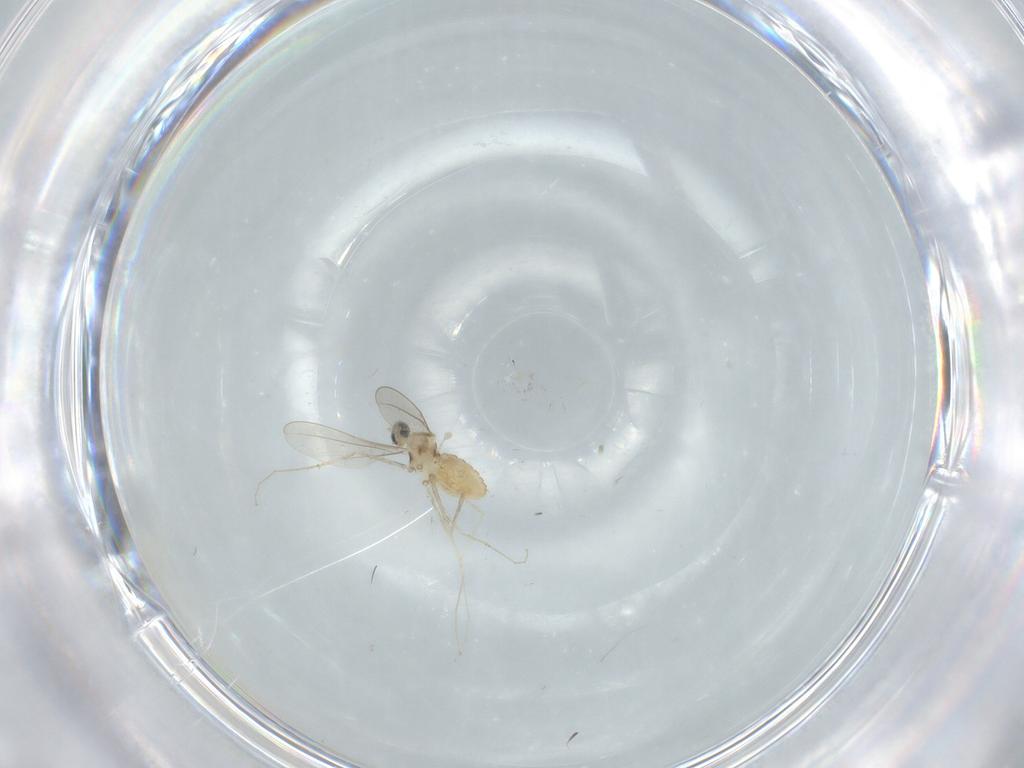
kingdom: Animalia
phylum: Arthropoda
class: Insecta
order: Diptera
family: Cecidomyiidae
